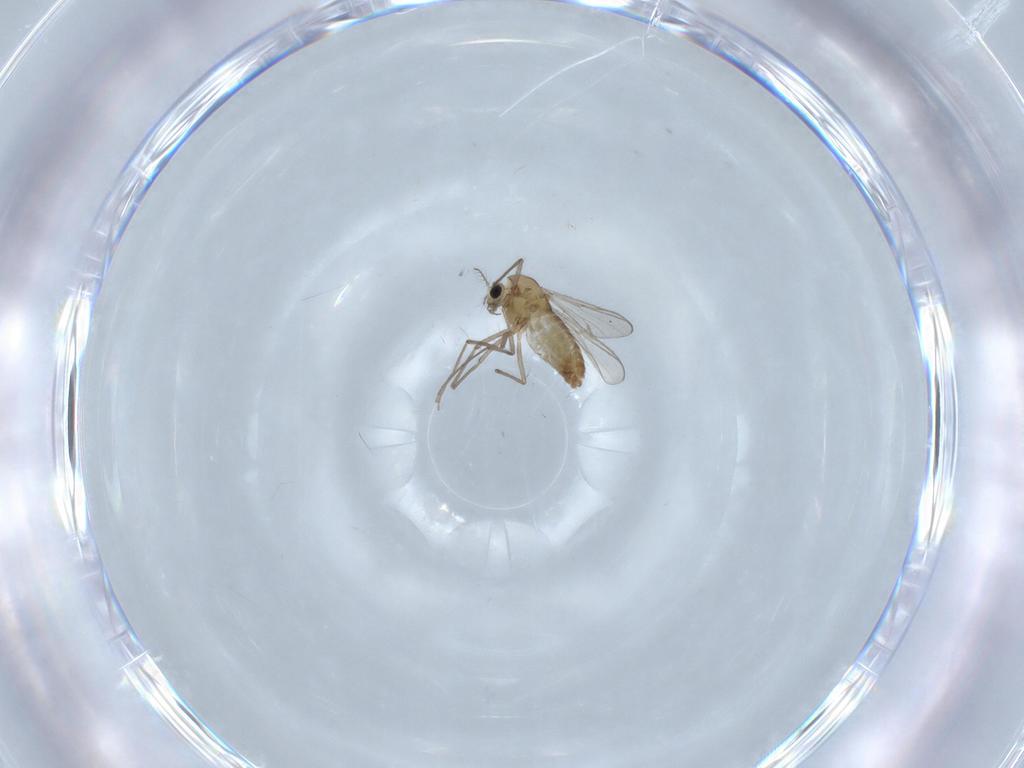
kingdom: Animalia
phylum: Arthropoda
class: Insecta
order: Diptera
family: Chironomidae
